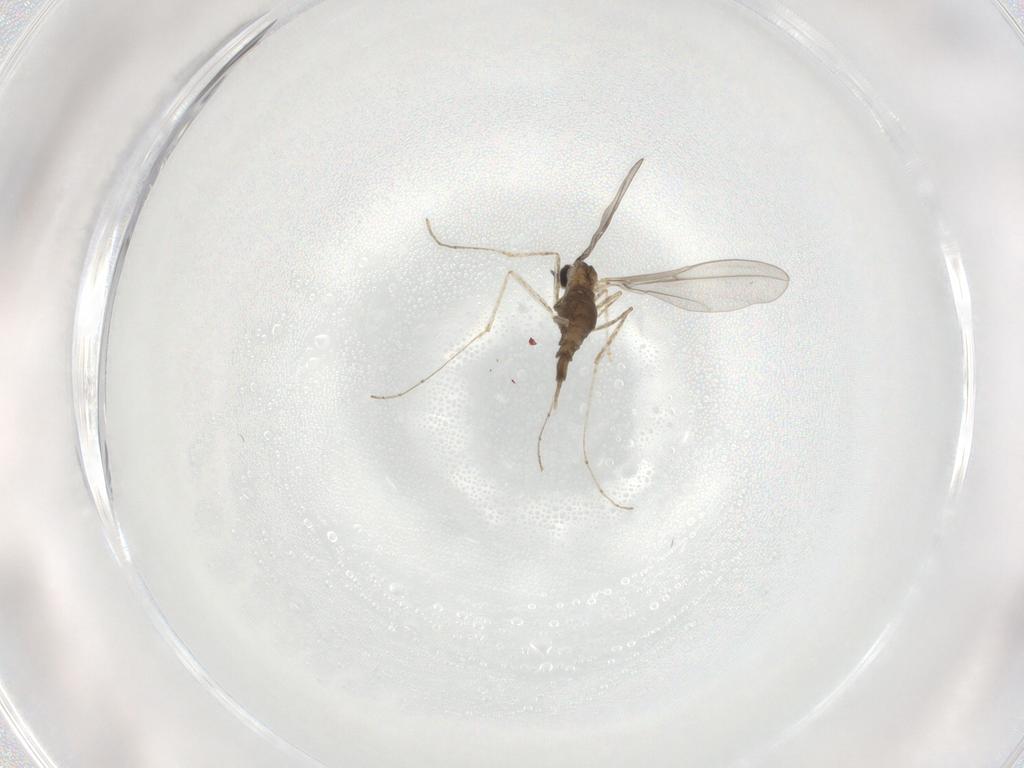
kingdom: Animalia
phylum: Arthropoda
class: Insecta
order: Diptera
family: Cecidomyiidae
